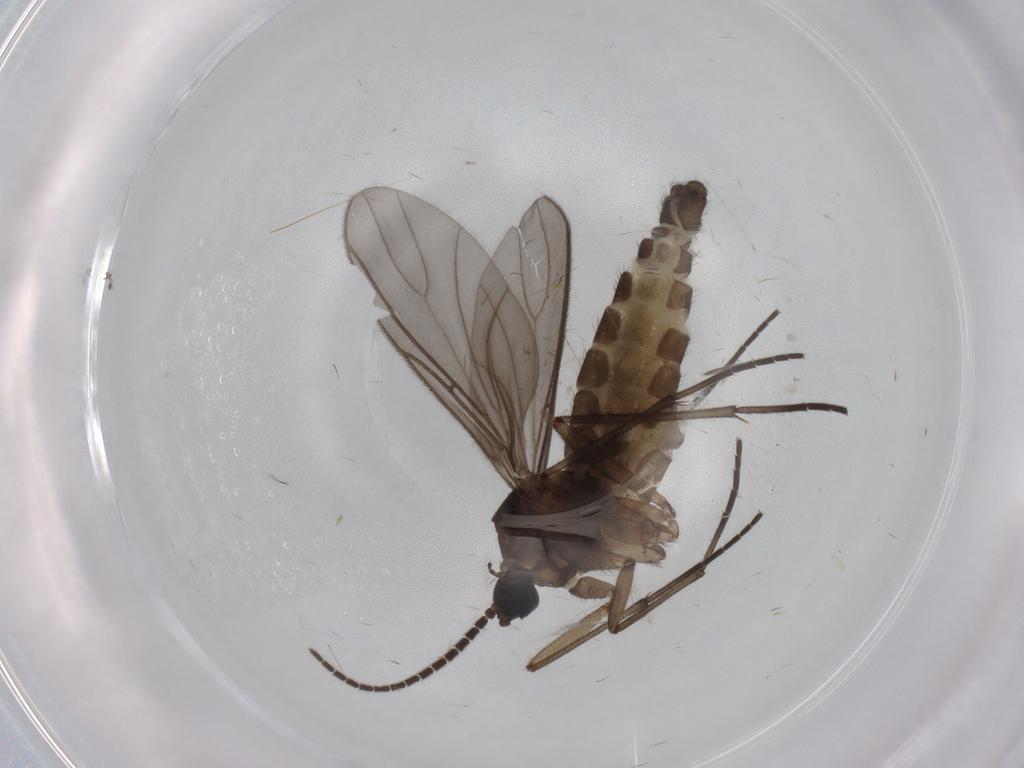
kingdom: Animalia
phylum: Arthropoda
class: Insecta
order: Diptera
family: Sciaridae
